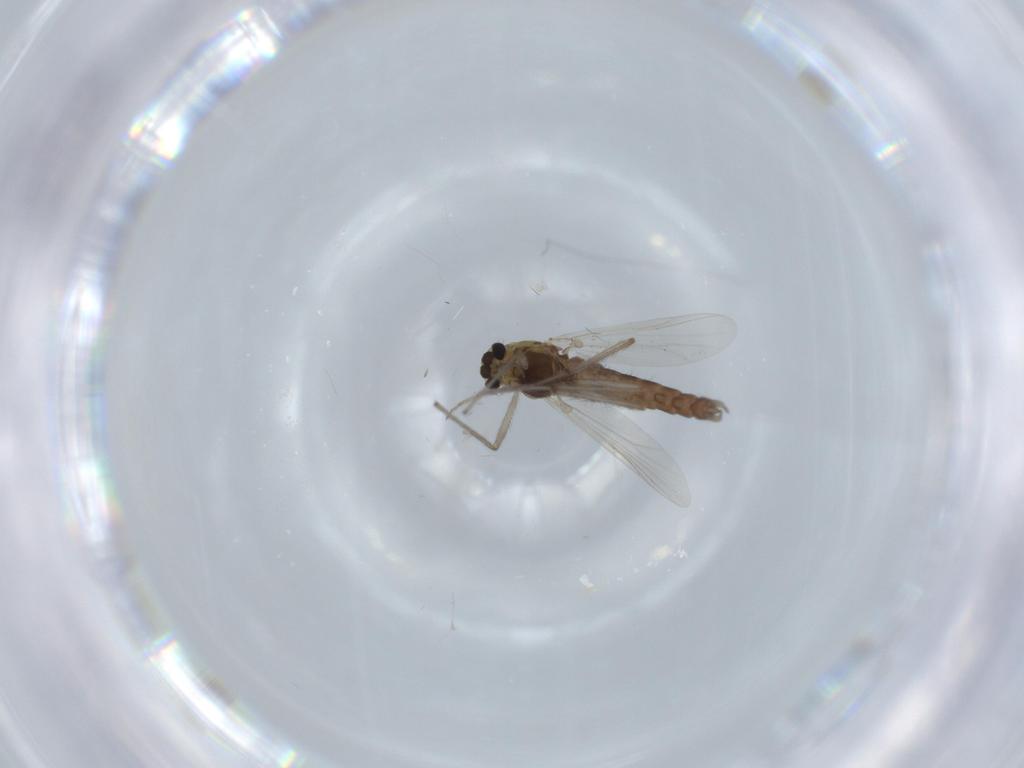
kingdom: Animalia
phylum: Arthropoda
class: Insecta
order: Diptera
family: Chironomidae
